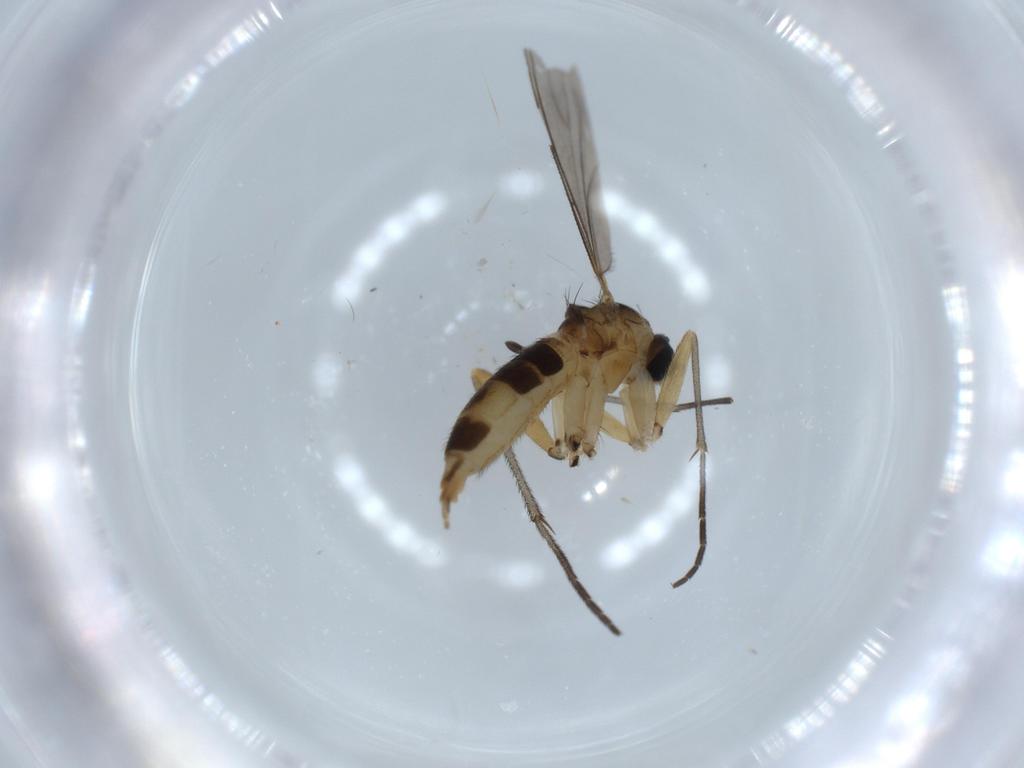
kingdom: Animalia
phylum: Arthropoda
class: Insecta
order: Diptera
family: Sciaridae
